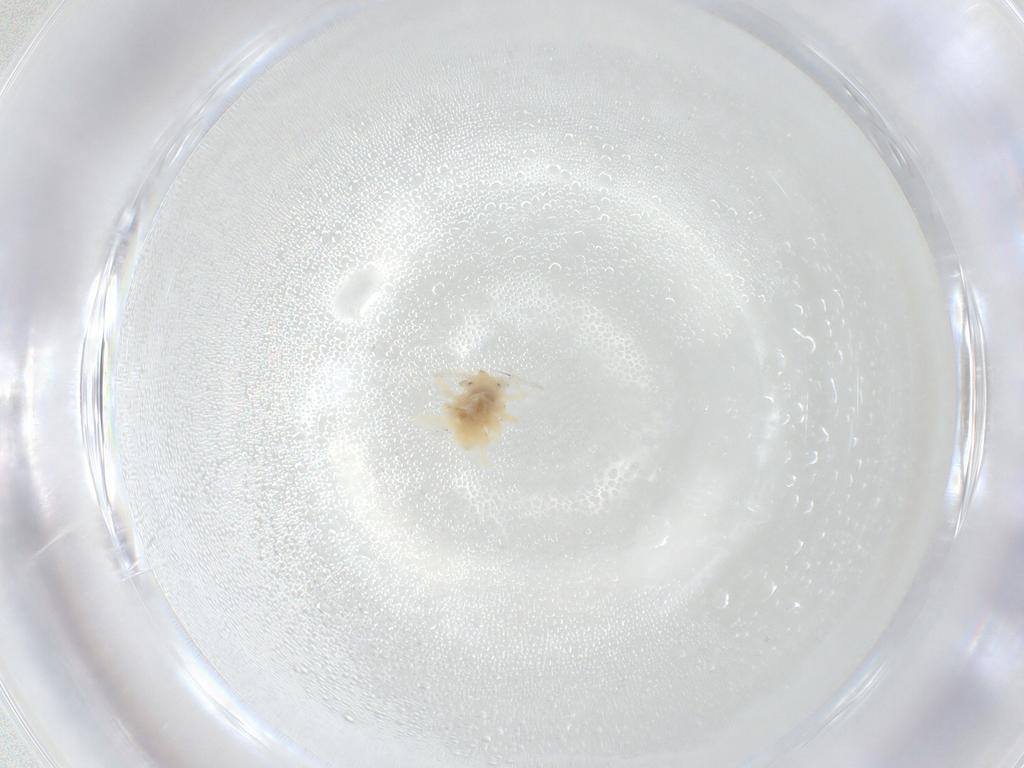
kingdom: Animalia
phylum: Arthropoda
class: Insecta
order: Neuroptera
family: Coniopterygidae
